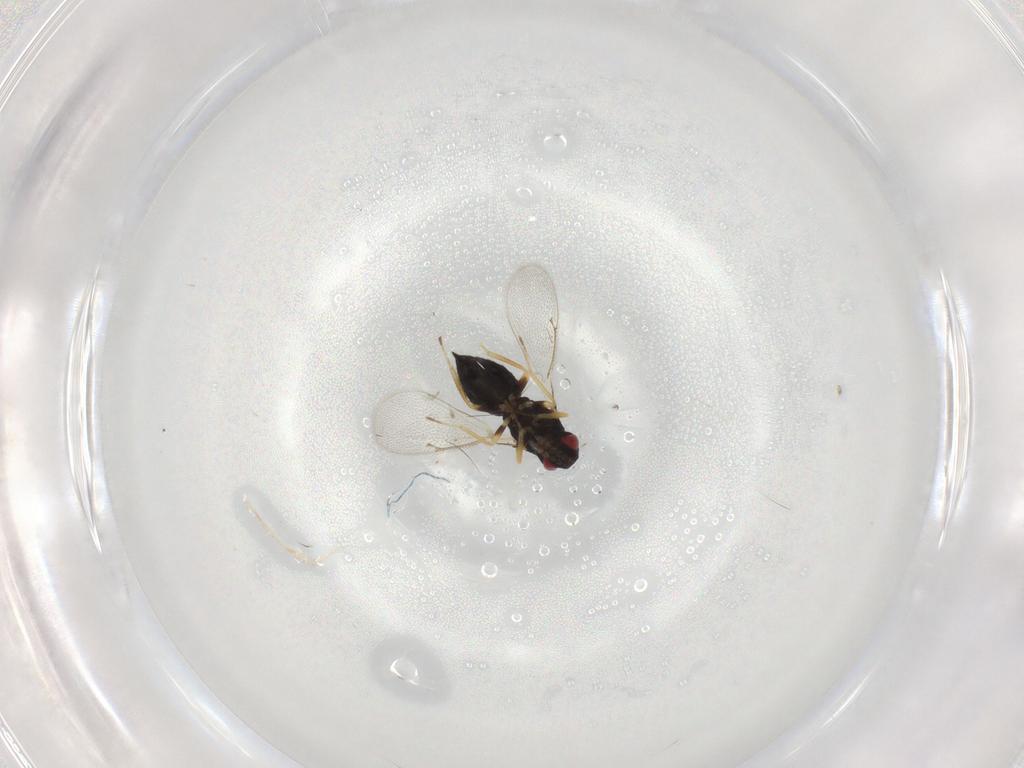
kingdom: Animalia
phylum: Arthropoda
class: Insecta
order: Hymenoptera
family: Eulophidae
